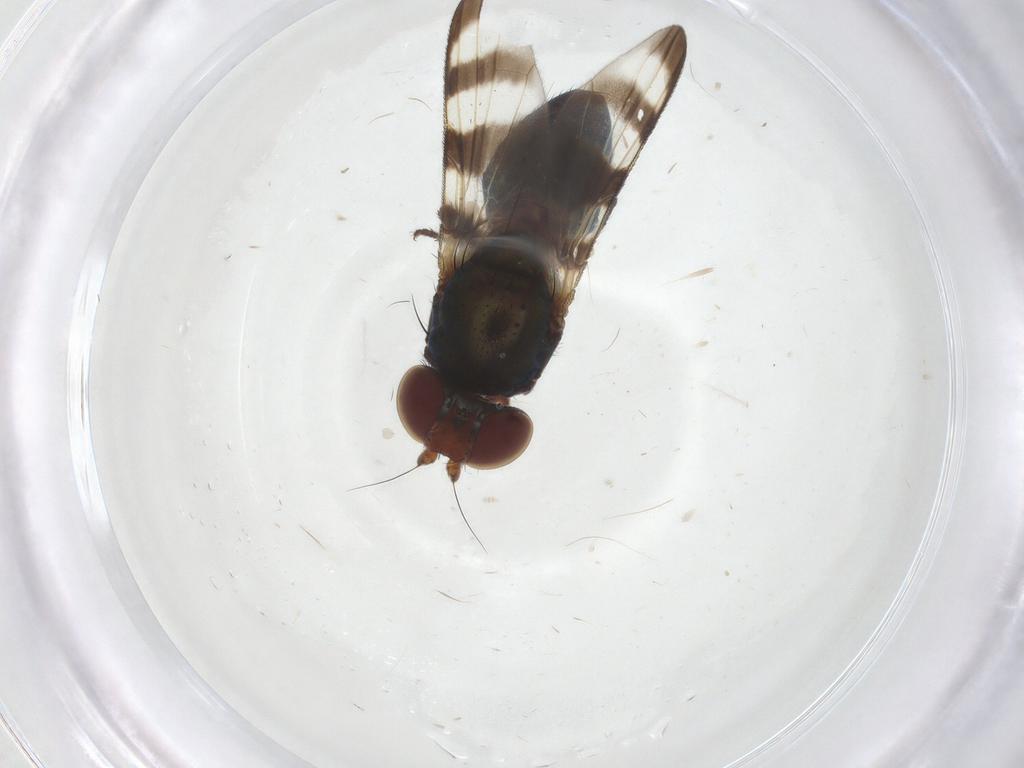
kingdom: Animalia
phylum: Arthropoda
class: Insecta
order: Diptera
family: Ulidiidae
